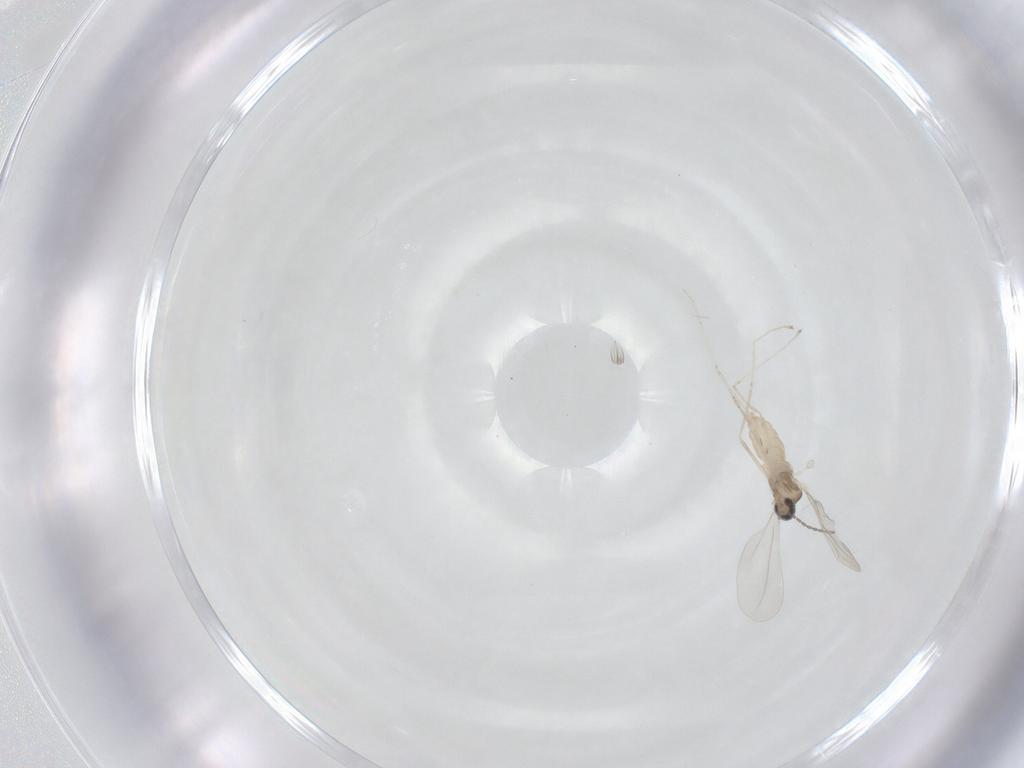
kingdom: Animalia
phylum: Arthropoda
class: Insecta
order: Diptera
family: Cecidomyiidae
